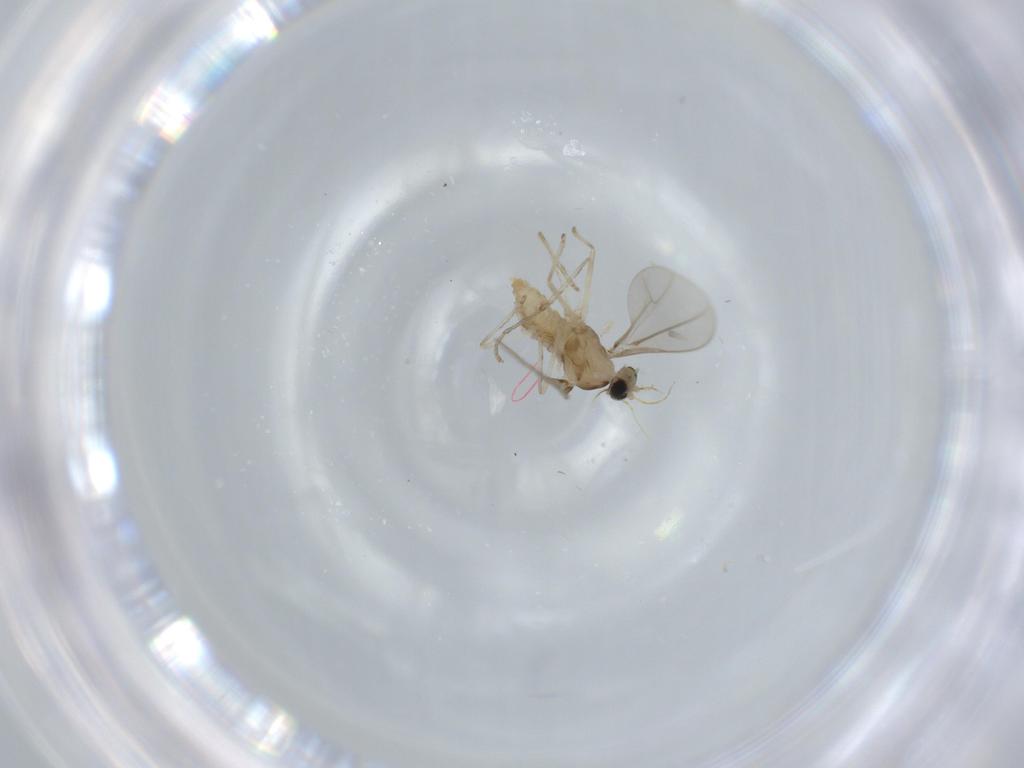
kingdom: Animalia
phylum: Arthropoda
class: Insecta
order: Diptera
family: Cecidomyiidae
